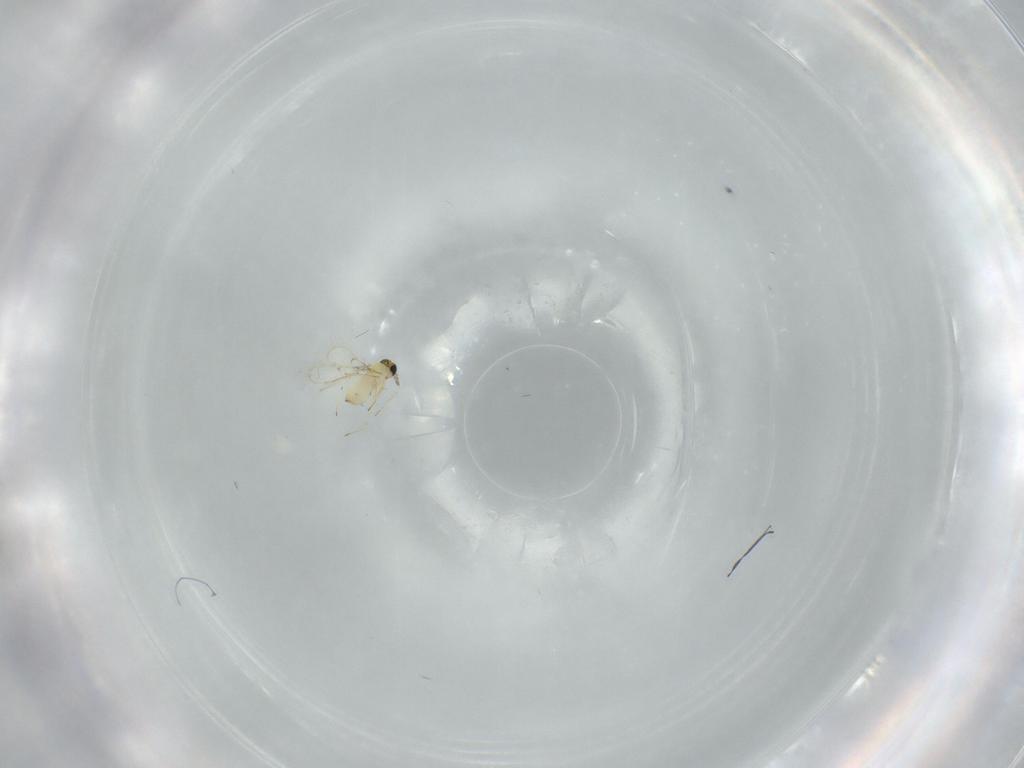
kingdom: Animalia
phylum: Arthropoda
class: Insecta
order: Hymenoptera
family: Trichogrammatidae
